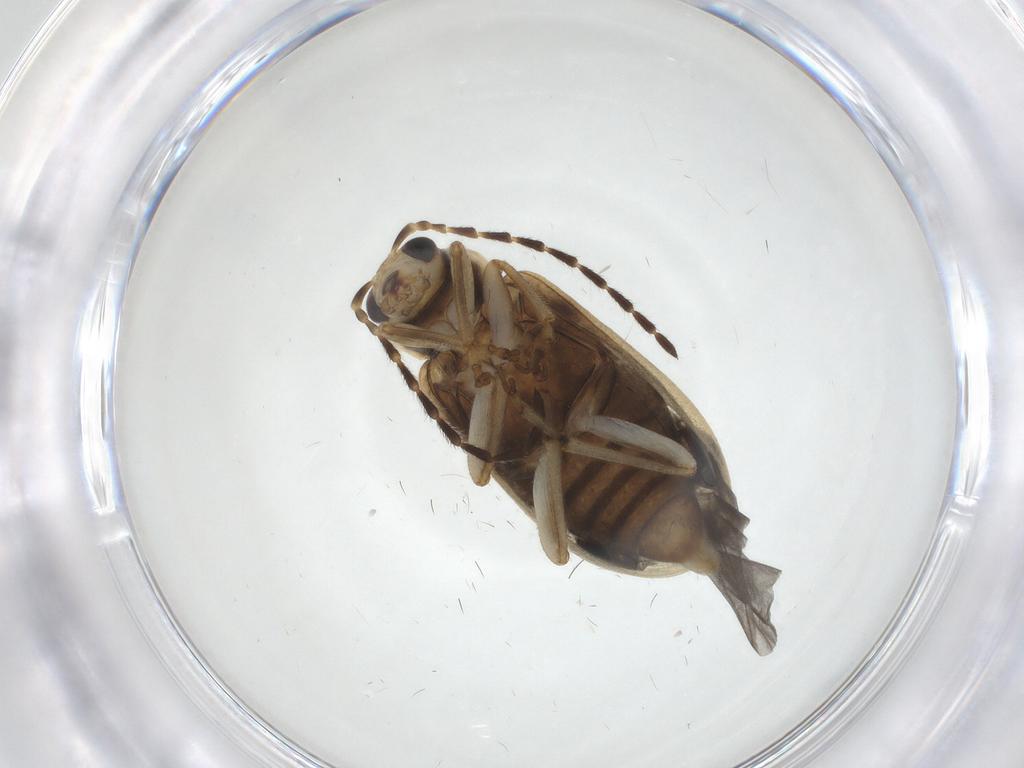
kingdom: Animalia
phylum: Arthropoda
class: Insecta
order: Coleoptera
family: Chrysomelidae
